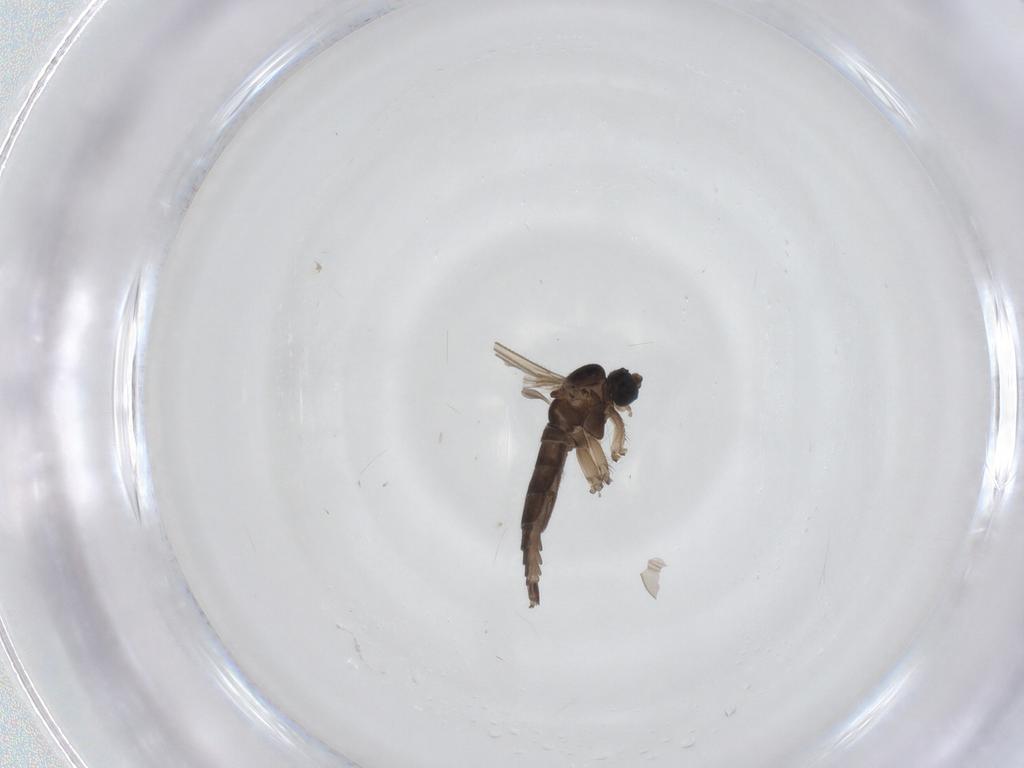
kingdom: Animalia
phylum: Arthropoda
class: Insecta
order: Diptera
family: Sciaridae
